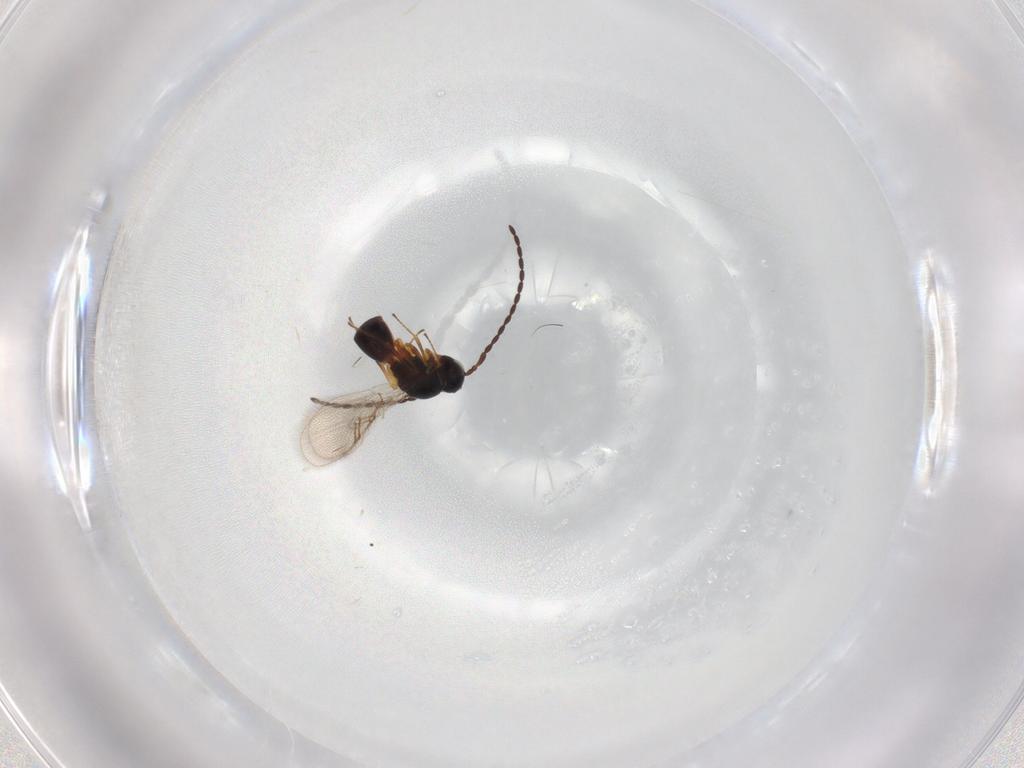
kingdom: Animalia
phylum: Arthropoda
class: Insecta
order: Hymenoptera
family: Figitidae
